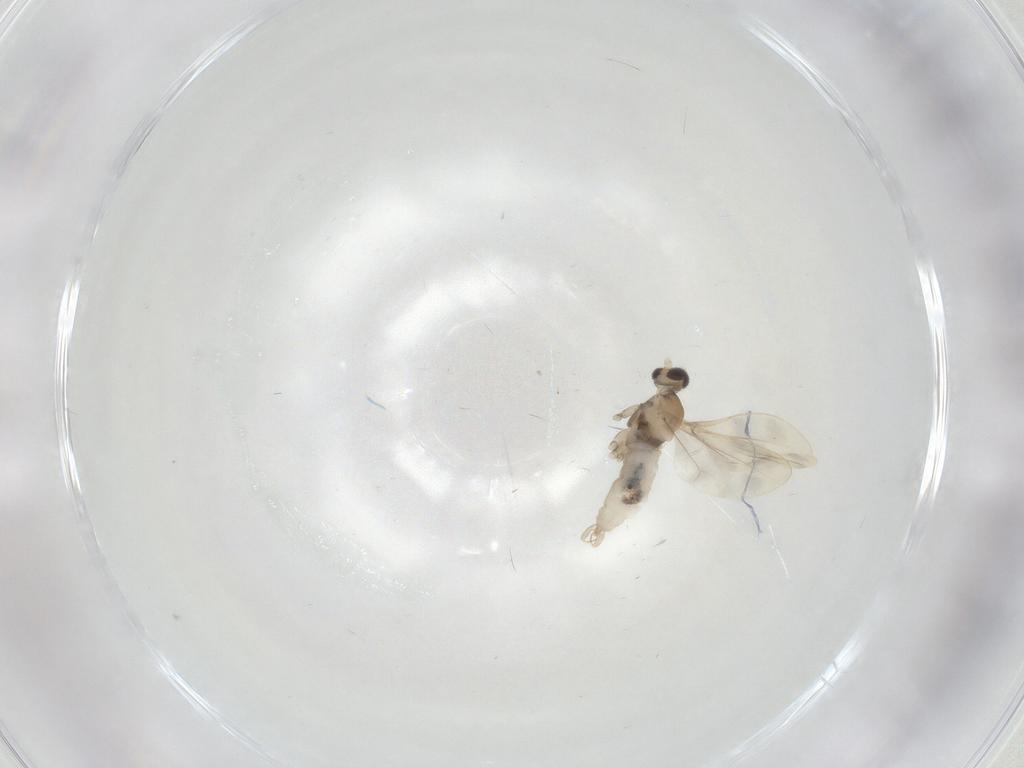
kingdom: Animalia
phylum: Arthropoda
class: Insecta
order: Diptera
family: Cecidomyiidae
